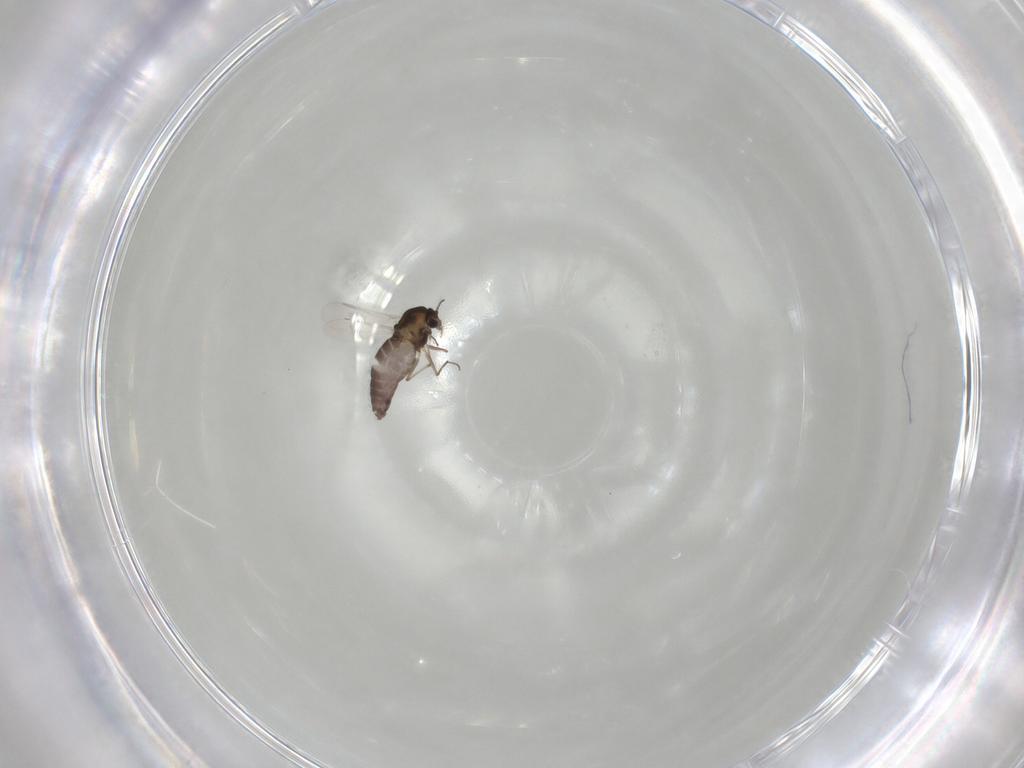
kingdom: Animalia
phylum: Arthropoda
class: Insecta
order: Diptera
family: Chironomidae
